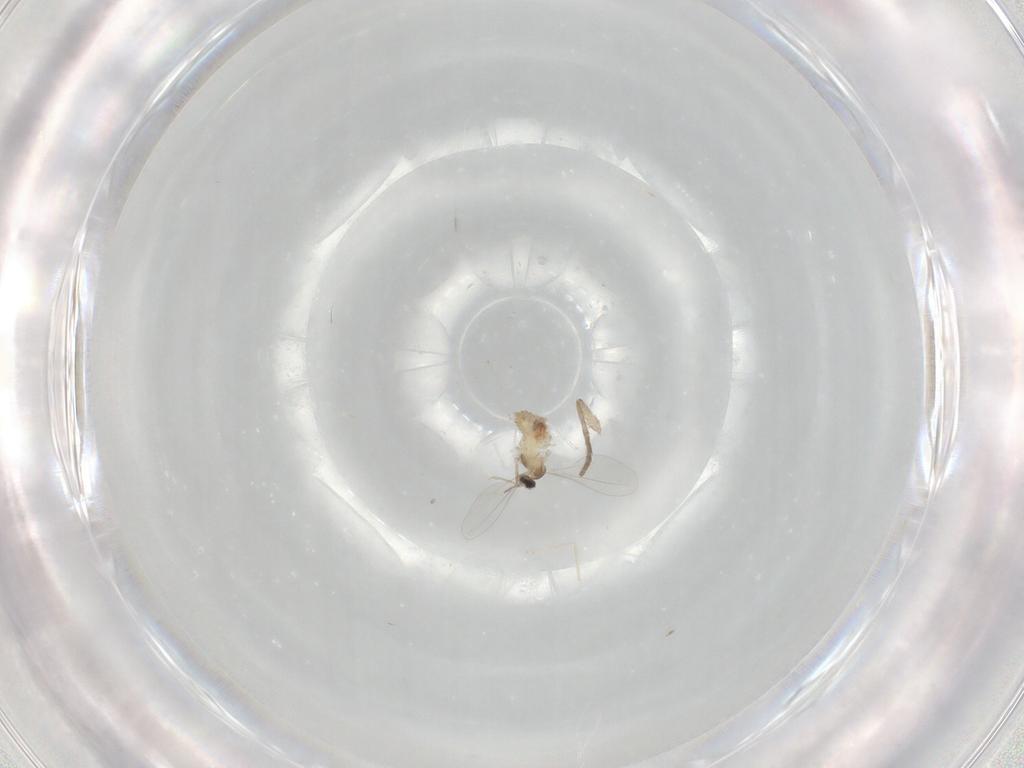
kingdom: Animalia
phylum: Arthropoda
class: Insecta
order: Diptera
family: Cecidomyiidae
